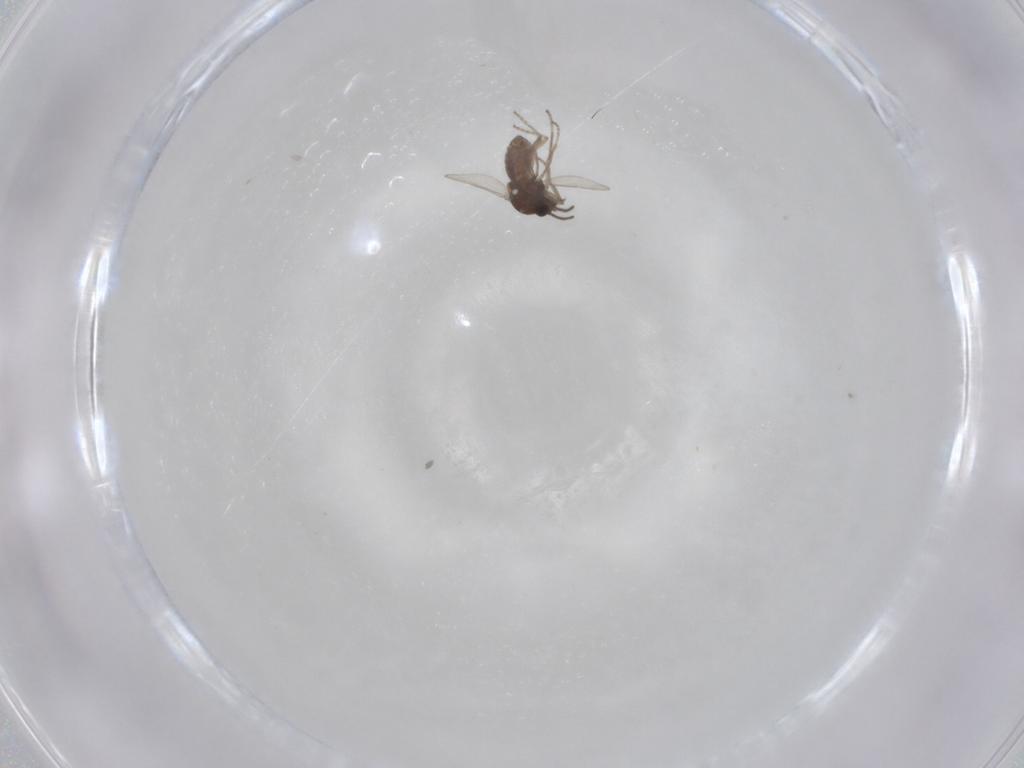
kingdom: Animalia
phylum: Arthropoda
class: Insecta
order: Diptera
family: Ceratopogonidae
